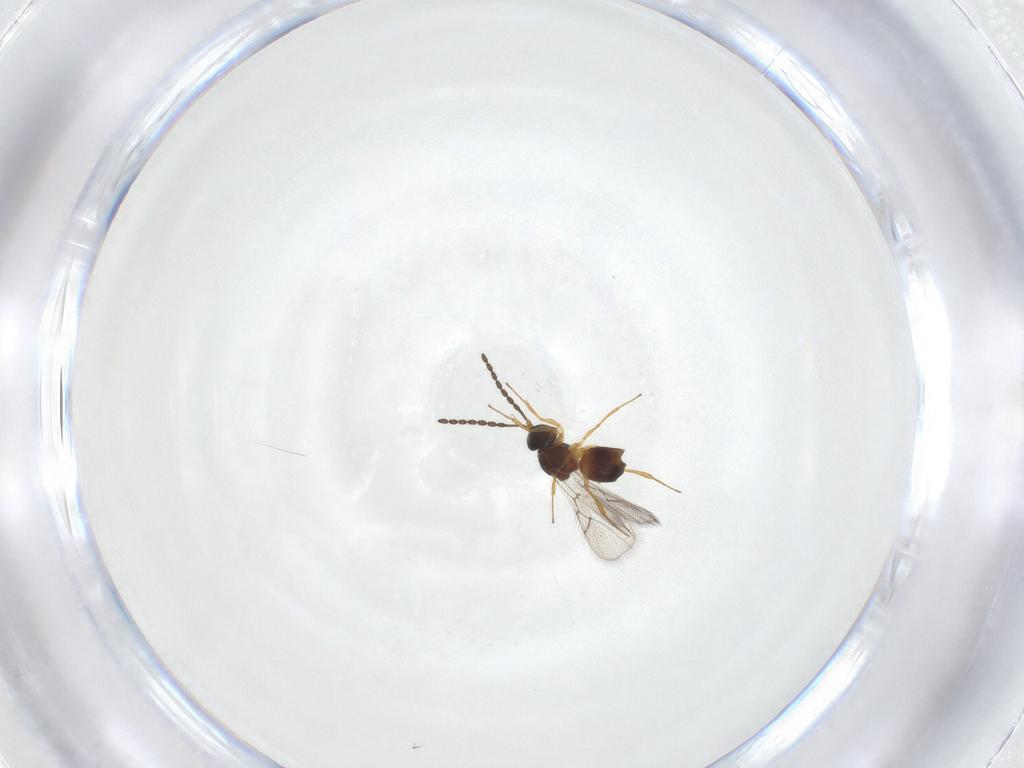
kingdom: Animalia
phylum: Arthropoda
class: Insecta
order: Hymenoptera
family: Figitidae
